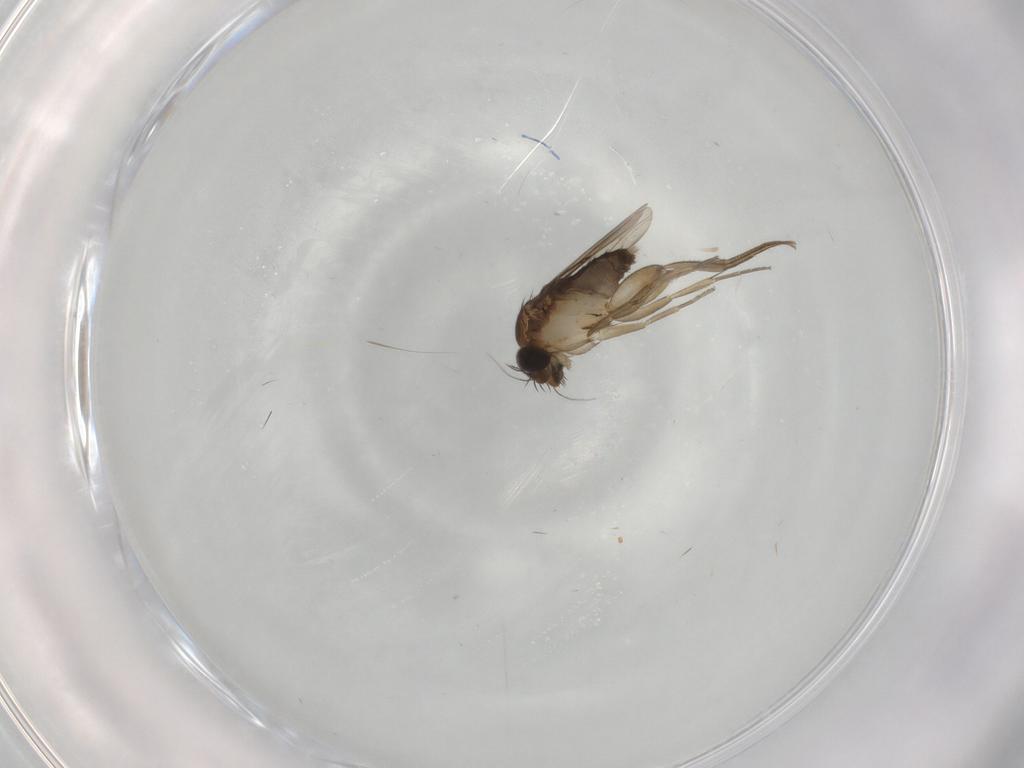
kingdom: Animalia
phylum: Arthropoda
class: Insecta
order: Diptera
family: Phoridae
